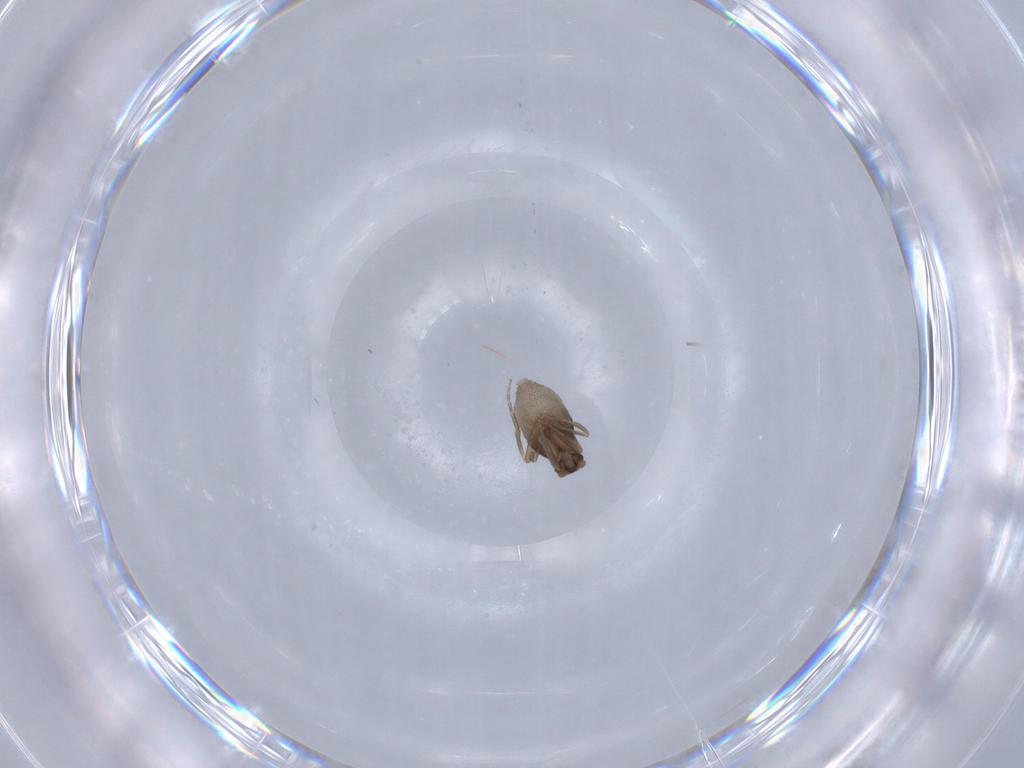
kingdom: Animalia
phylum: Arthropoda
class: Insecta
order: Diptera
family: Phoridae
